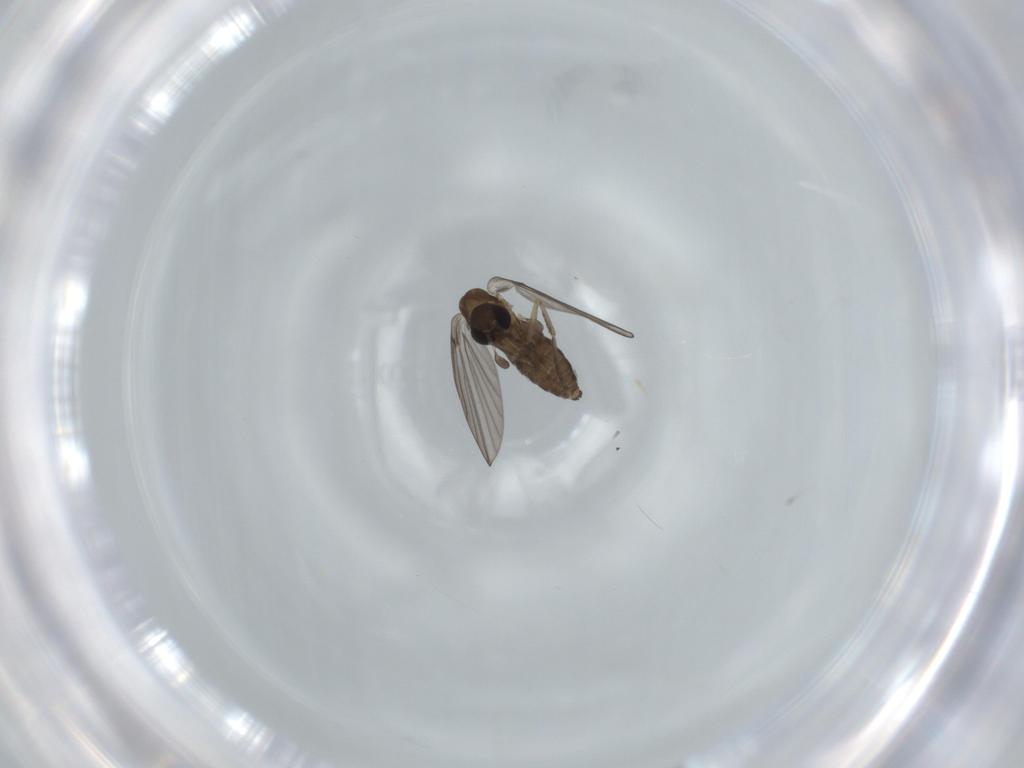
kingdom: Animalia
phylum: Arthropoda
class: Insecta
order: Diptera
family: Psychodidae
